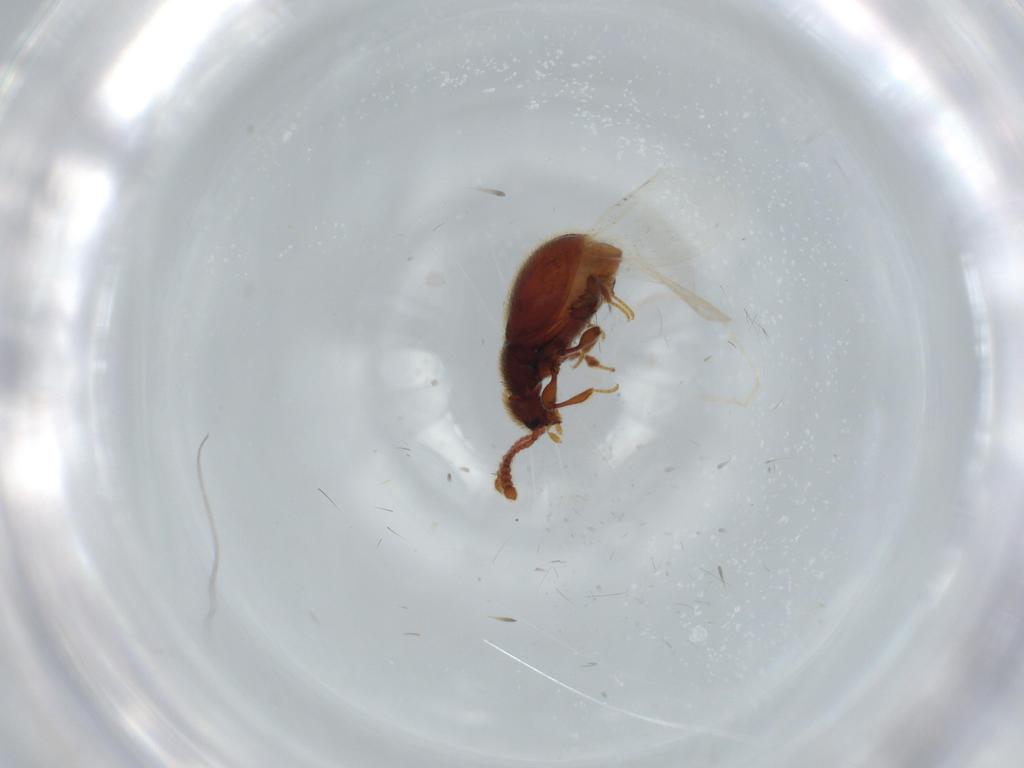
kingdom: Animalia
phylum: Arthropoda
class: Insecta
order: Coleoptera
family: Staphylinidae
